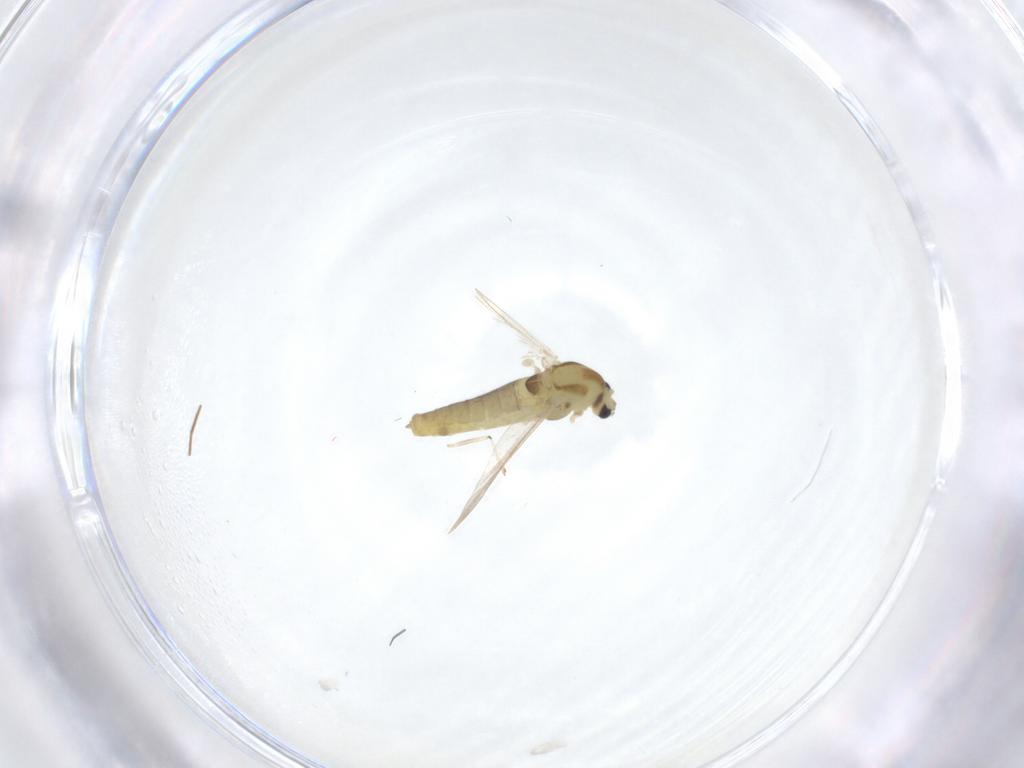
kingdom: Animalia
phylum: Arthropoda
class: Insecta
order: Diptera
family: Chironomidae
